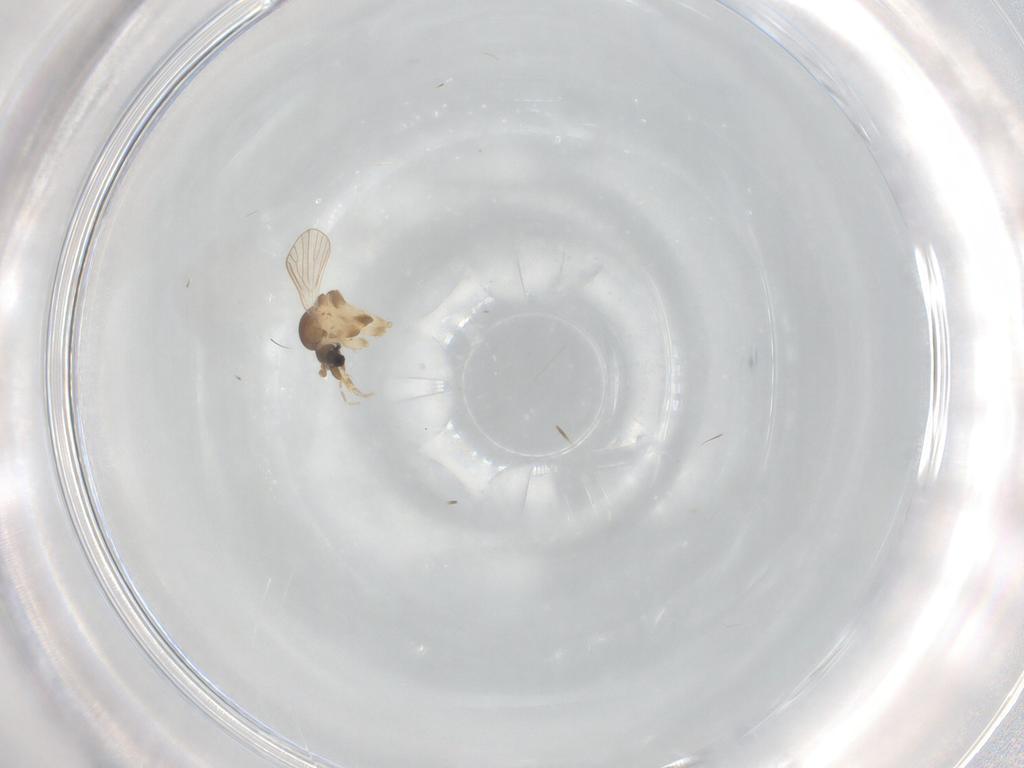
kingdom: Animalia
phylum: Arthropoda
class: Insecta
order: Diptera
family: Psychodidae
